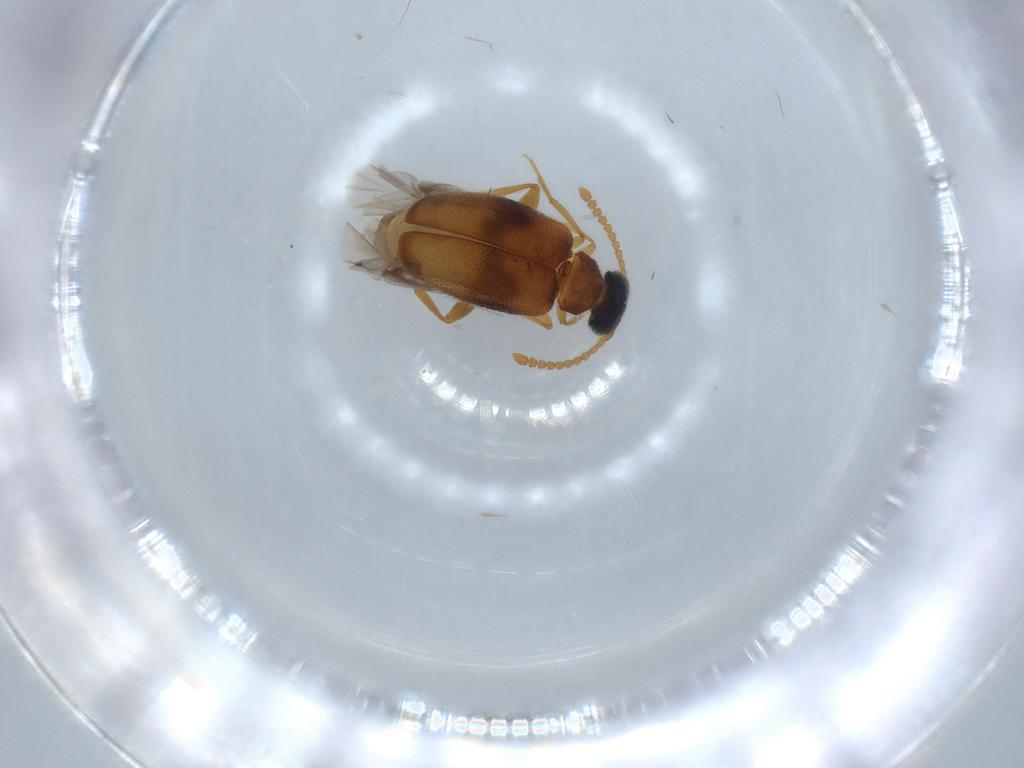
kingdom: Animalia
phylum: Arthropoda
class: Insecta
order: Coleoptera
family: Aderidae
